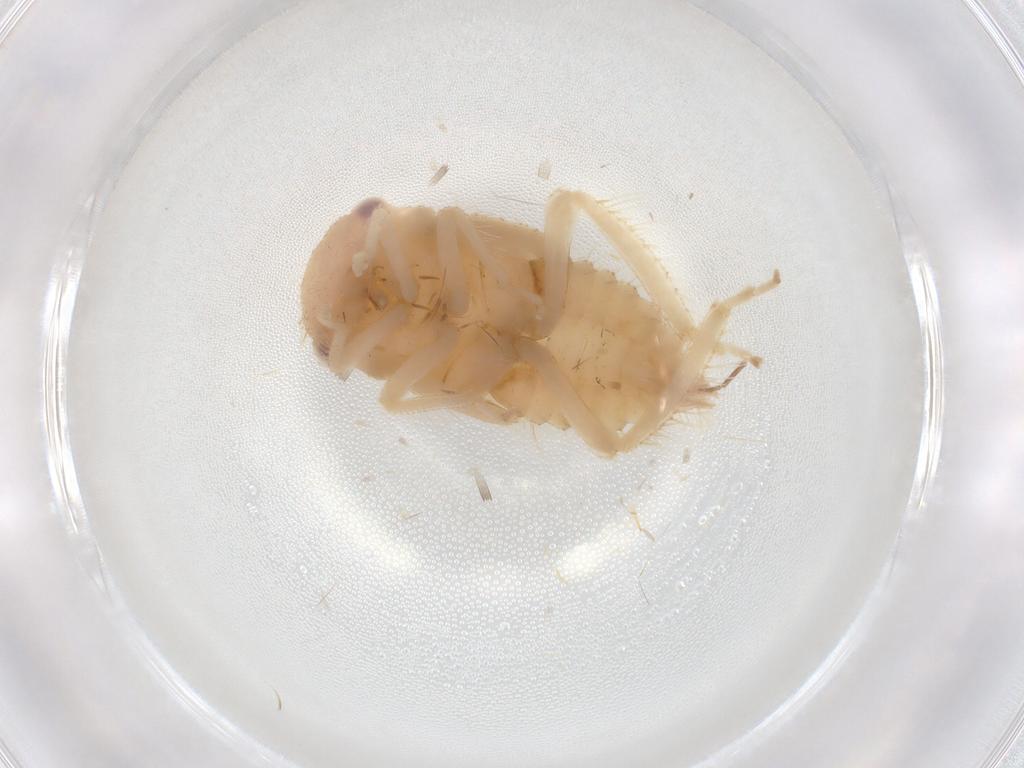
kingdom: Animalia
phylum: Arthropoda
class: Insecta
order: Hemiptera
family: Cicadellidae
